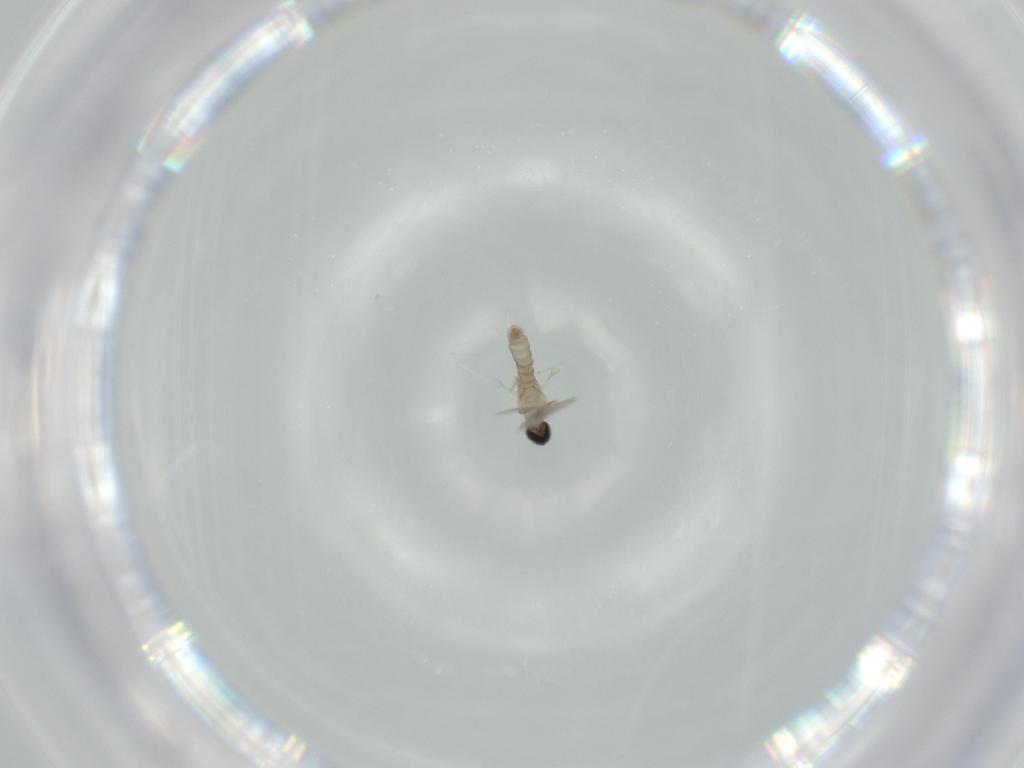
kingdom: Animalia
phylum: Arthropoda
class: Insecta
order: Diptera
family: Cecidomyiidae
